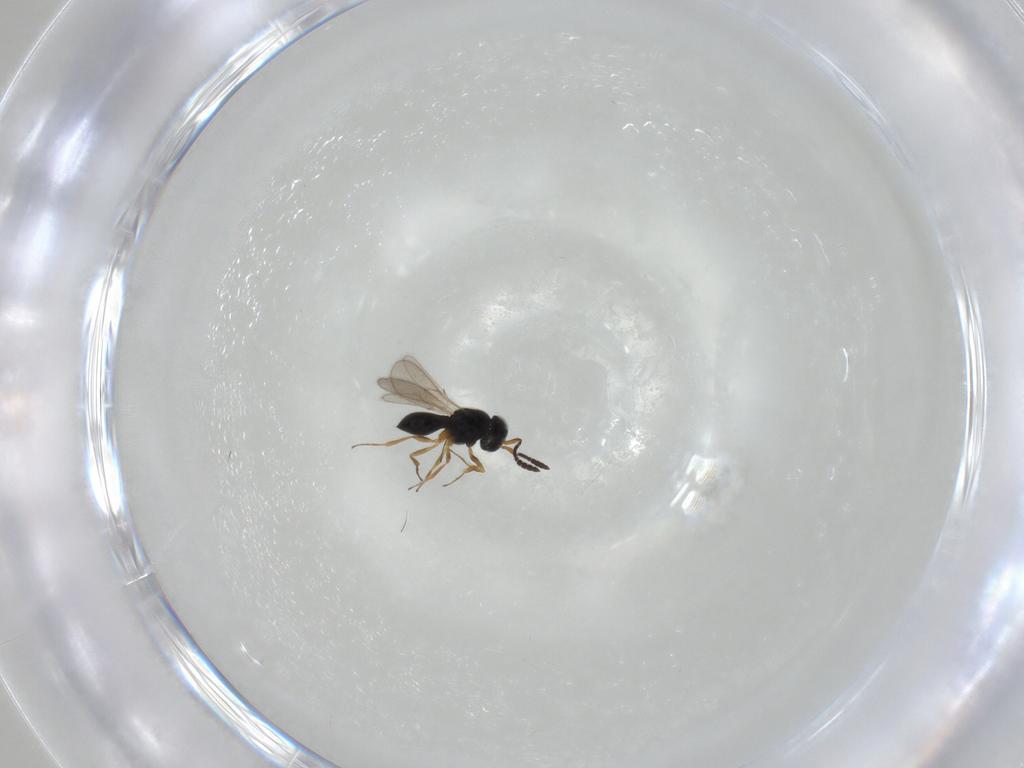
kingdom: Animalia
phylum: Arthropoda
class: Insecta
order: Hymenoptera
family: Scelionidae
